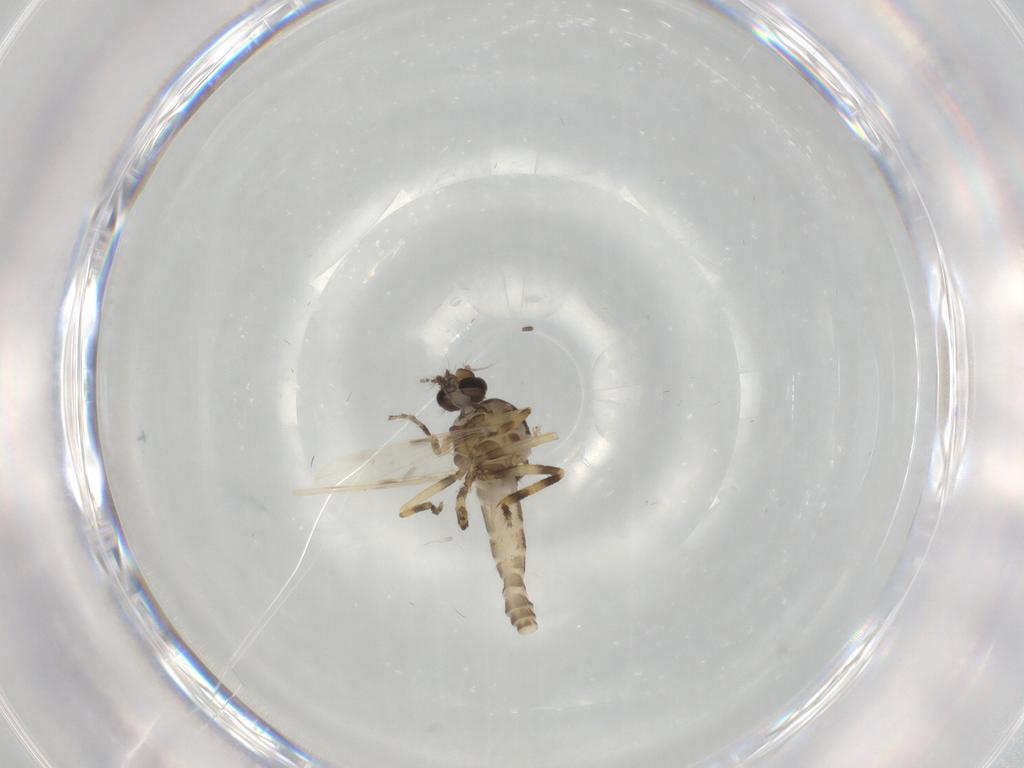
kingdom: Animalia
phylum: Arthropoda
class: Insecta
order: Diptera
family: Ceratopogonidae
